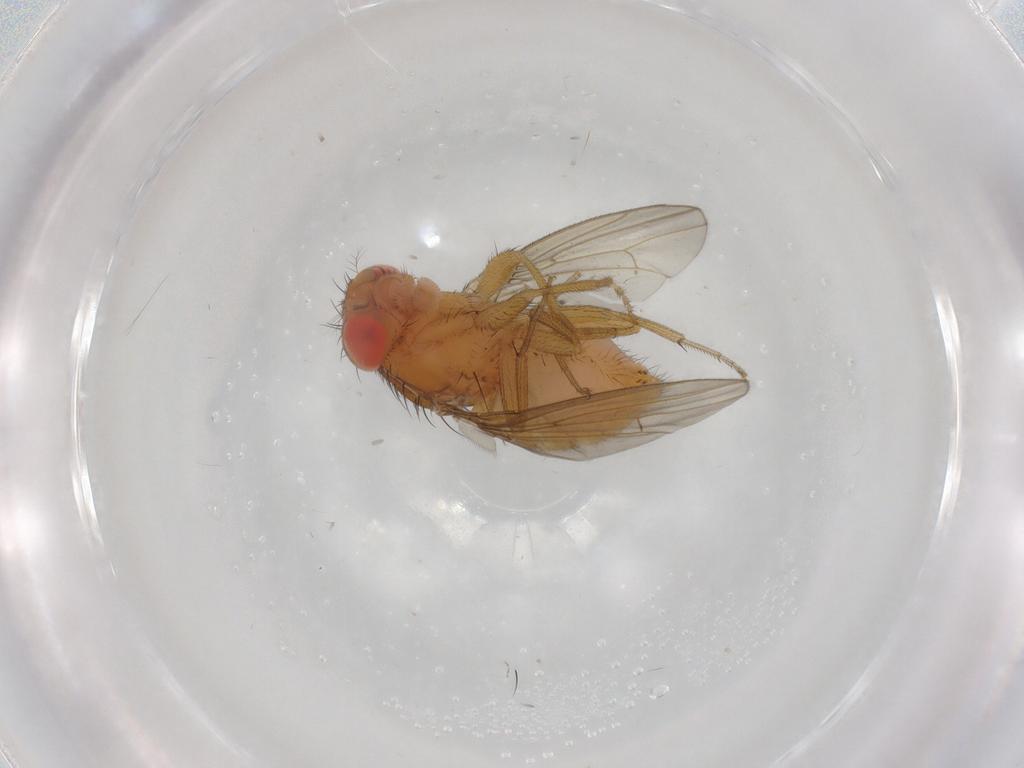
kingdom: Animalia
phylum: Arthropoda
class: Insecta
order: Diptera
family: Drosophilidae
